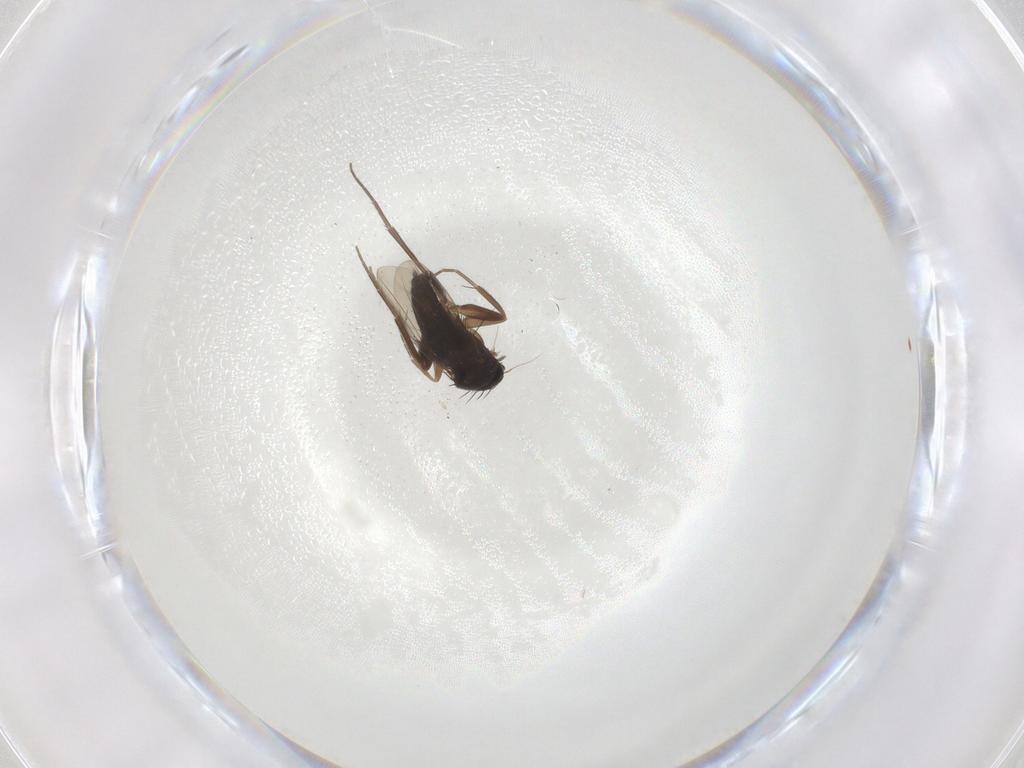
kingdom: Animalia
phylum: Arthropoda
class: Insecta
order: Diptera
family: Phoridae
